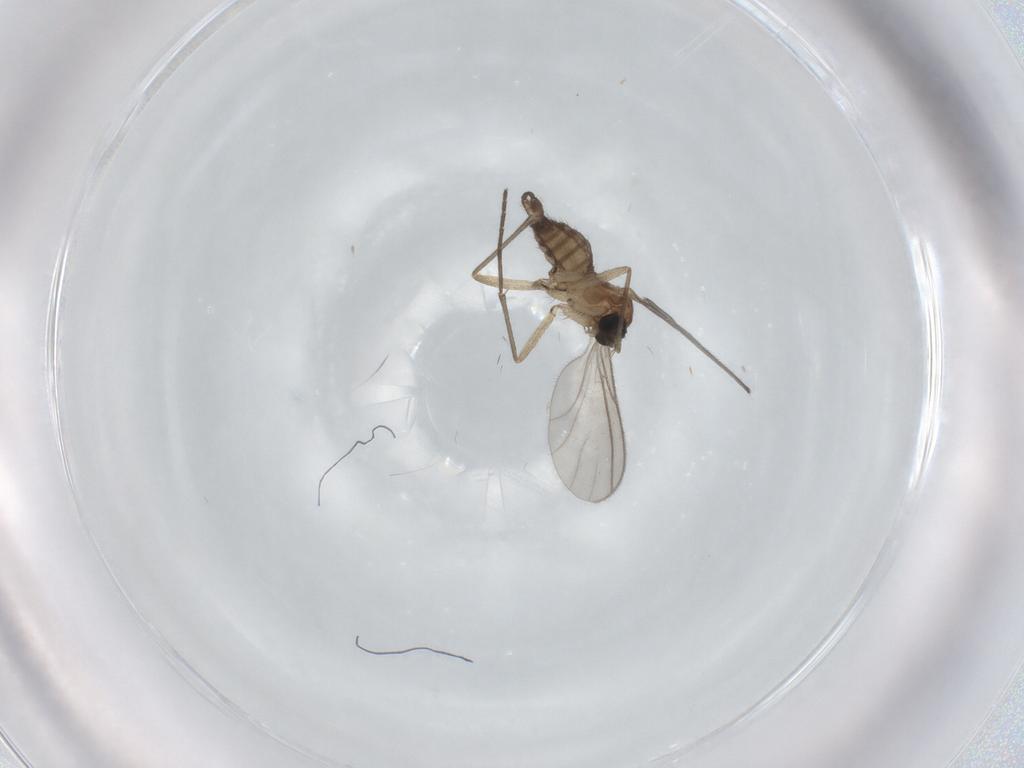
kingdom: Animalia
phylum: Arthropoda
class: Insecta
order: Diptera
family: Sciaridae
